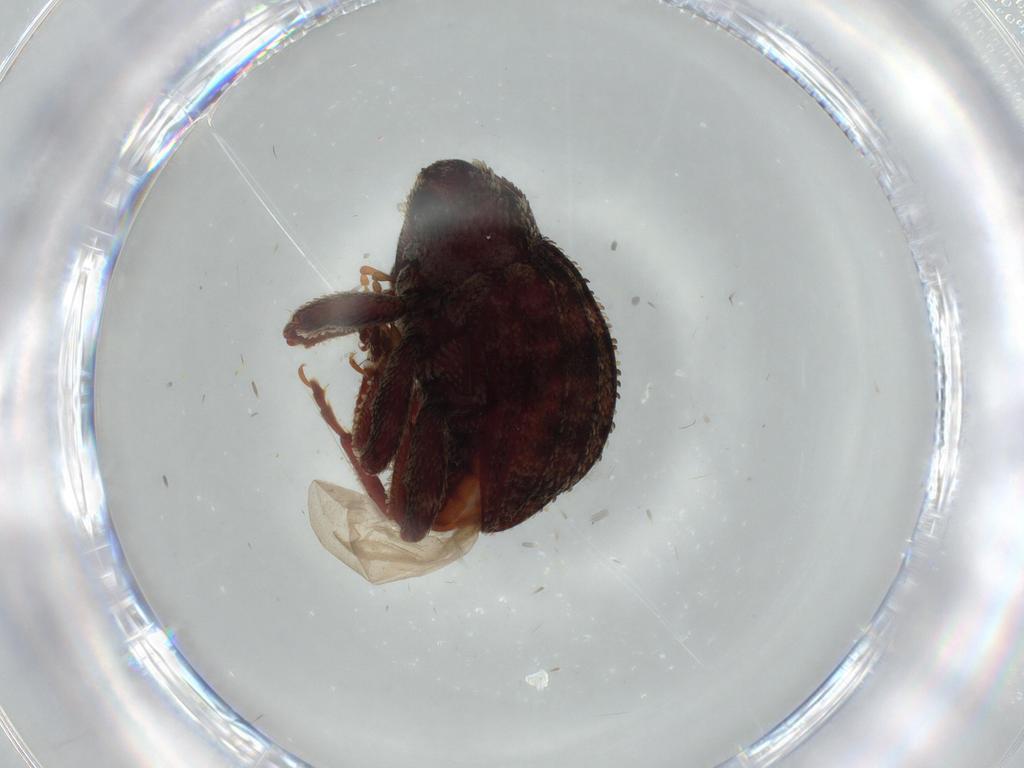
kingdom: Animalia
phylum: Arthropoda
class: Insecta
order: Coleoptera
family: Curculionidae
